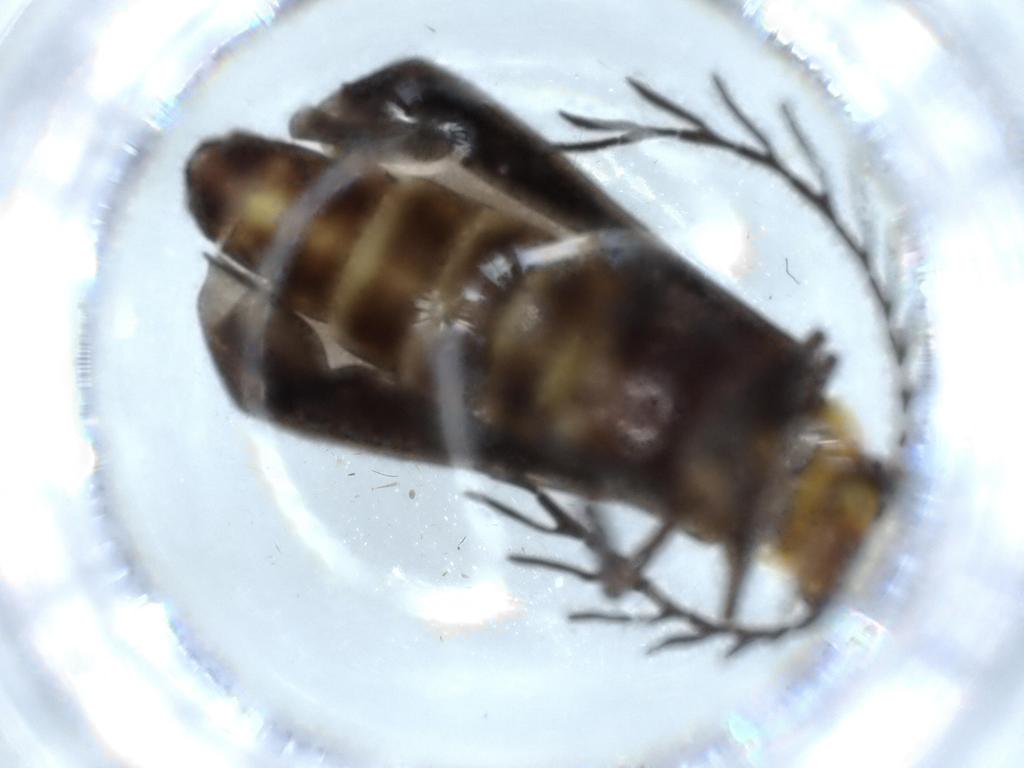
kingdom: Animalia
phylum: Arthropoda
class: Insecta
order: Coleoptera
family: Cantharidae
